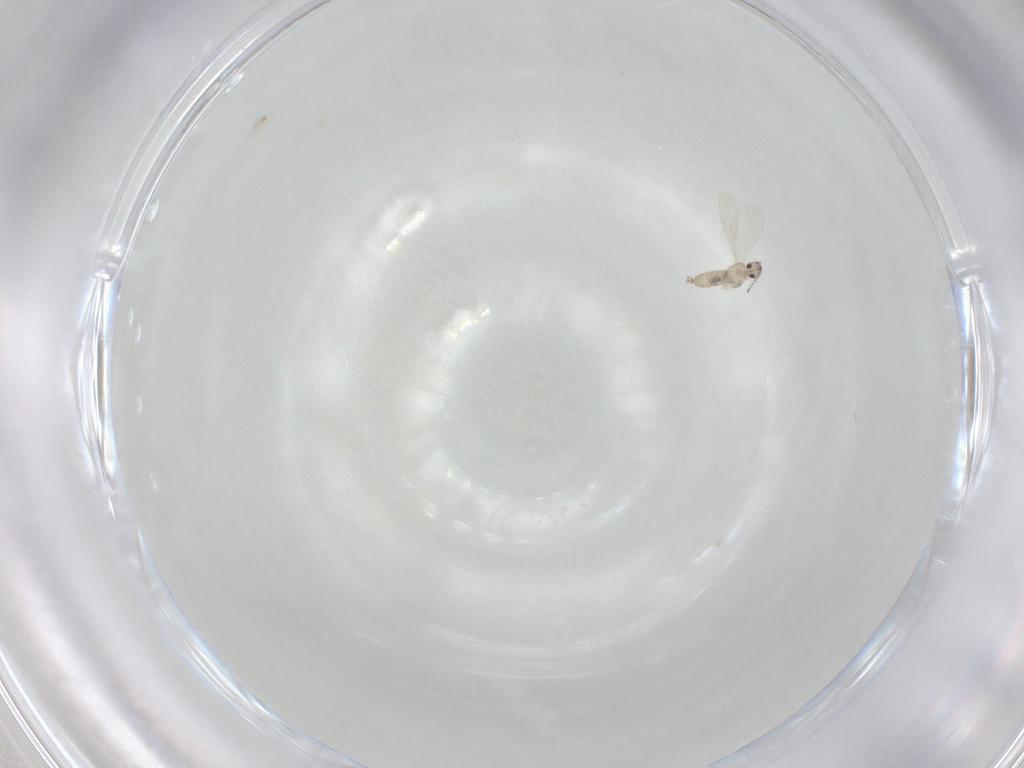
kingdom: Animalia
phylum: Arthropoda
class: Insecta
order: Diptera
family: Cecidomyiidae
